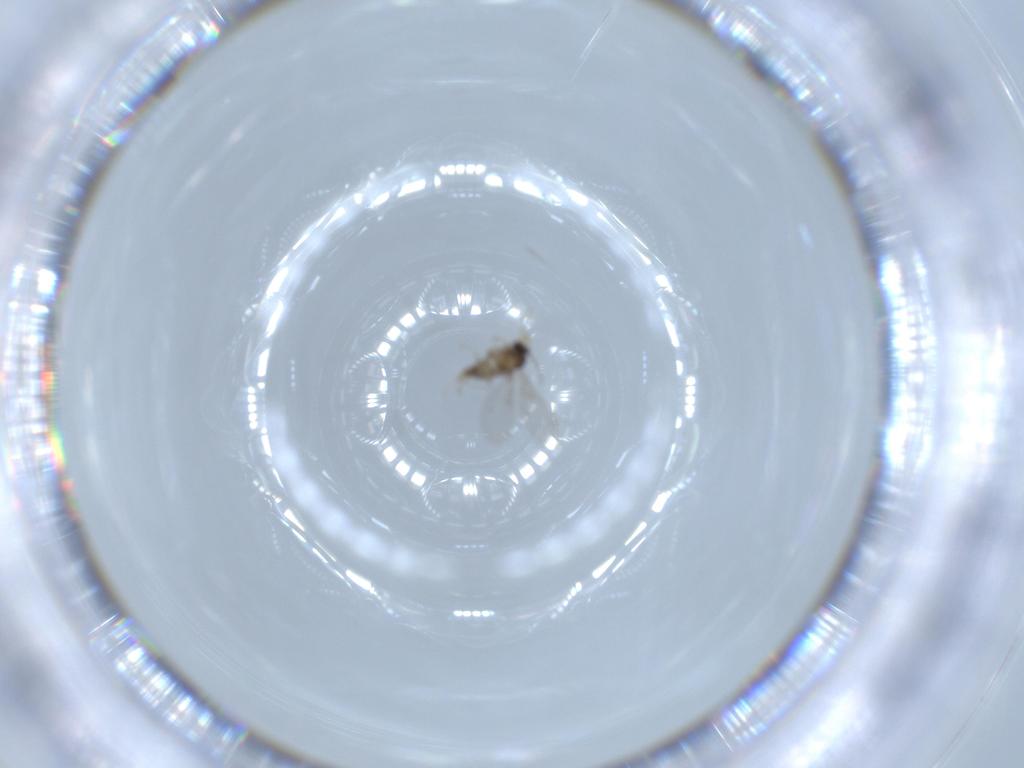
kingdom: Animalia
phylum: Arthropoda
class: Insecta
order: Diptera
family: Cecidomyiidae
